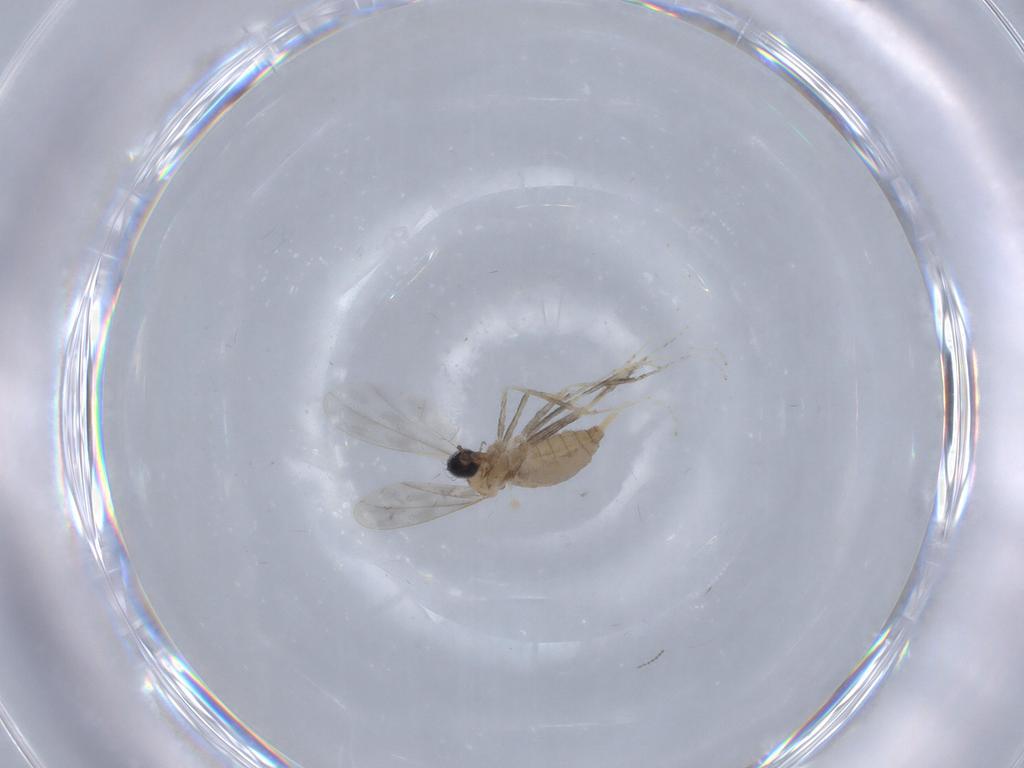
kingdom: Animalia
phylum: Arthropoda
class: Insecta
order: Diptera
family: Cecidomyiidae
